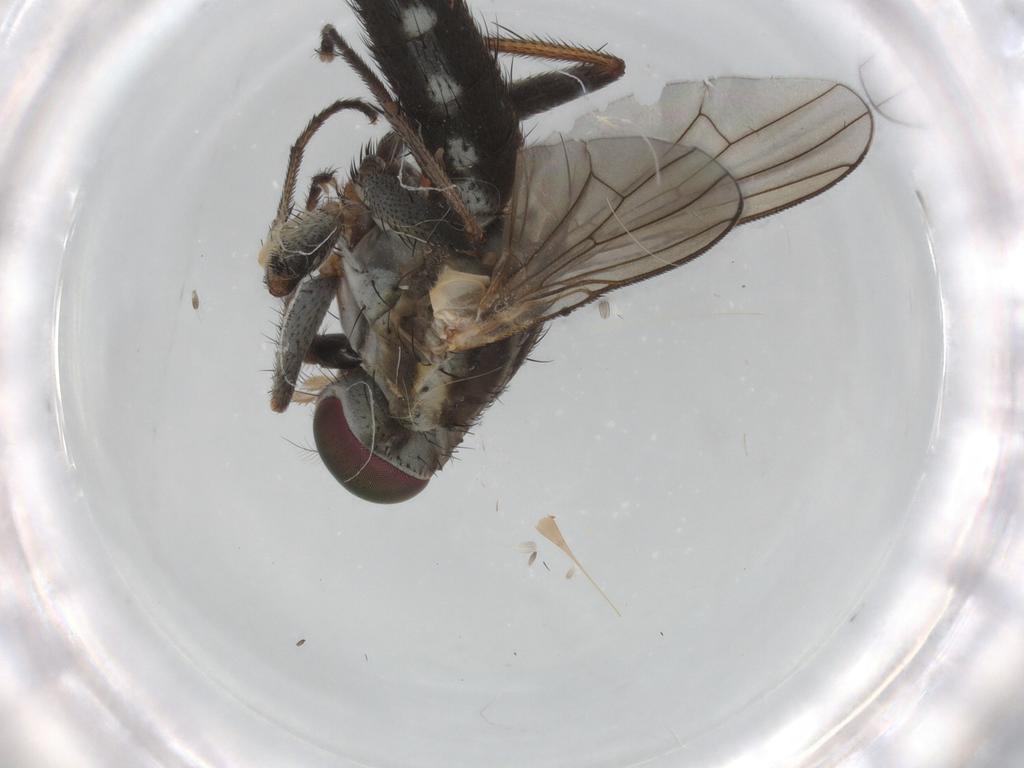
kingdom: Animalia
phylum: Arthropoda
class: Insecta
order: Diptera
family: Muscidae
